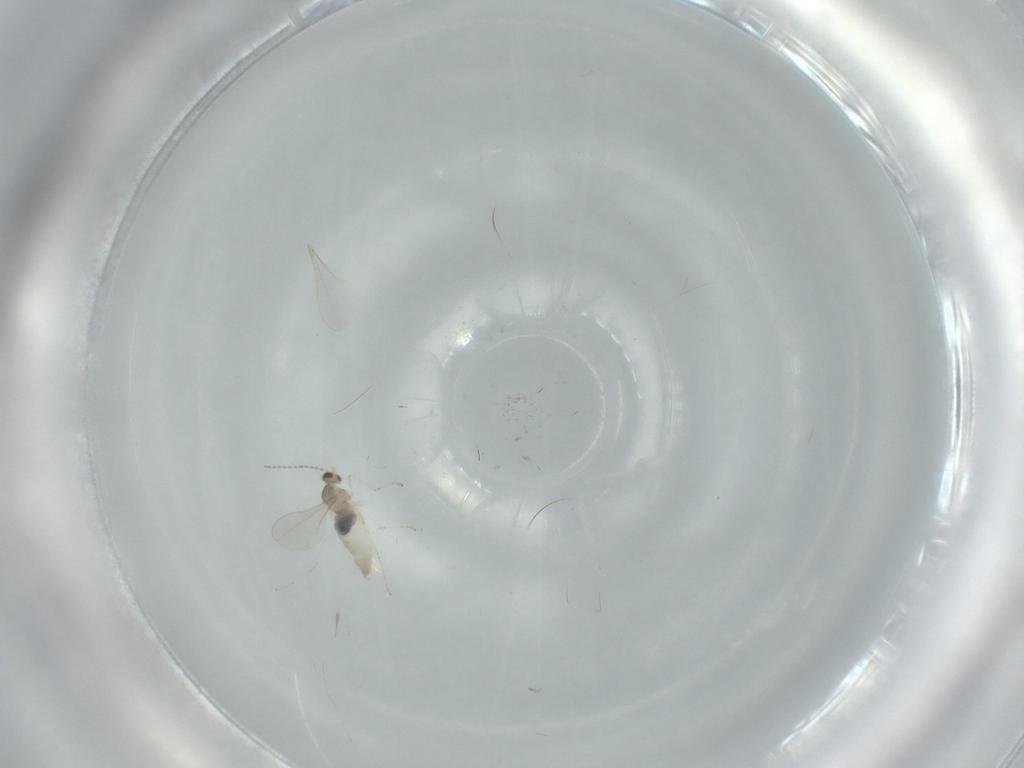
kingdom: Animalia
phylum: Arthropoda
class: Insecta
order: Diptera
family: Cecidomyiidae
